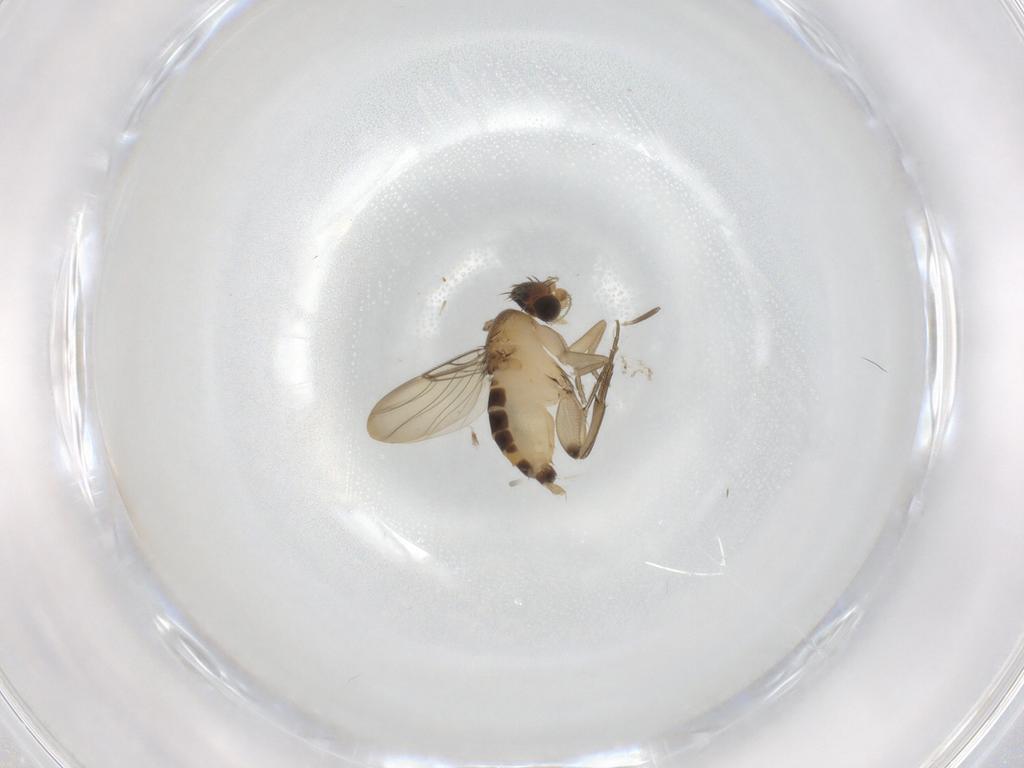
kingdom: Animalia
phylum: Arthropoda
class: Insecta
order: Diptera
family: Phoridae
